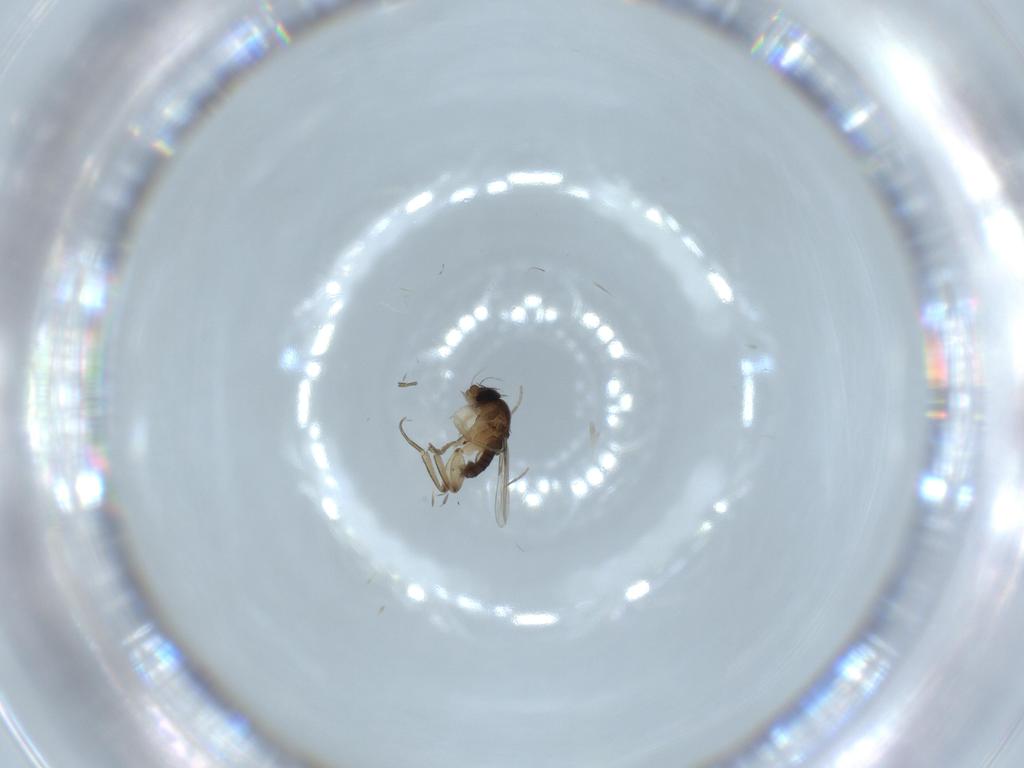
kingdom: Animalia
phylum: Arthropoda
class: Insecta
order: Diptera
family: Phoridae
